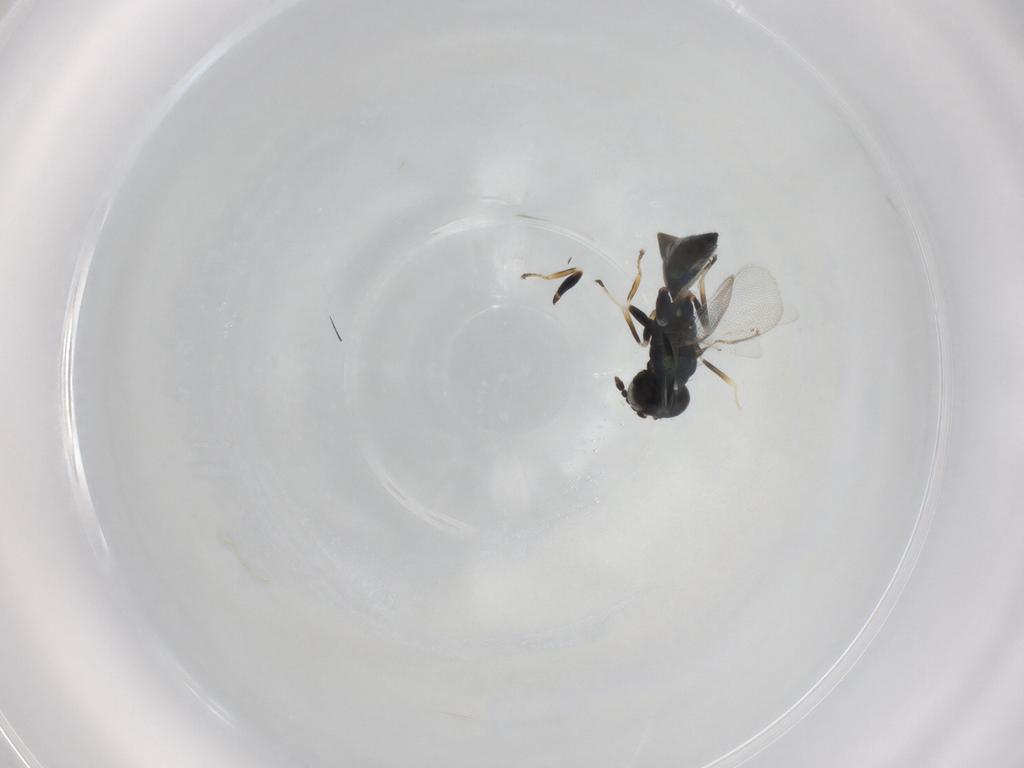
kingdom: Animalia
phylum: Arthropoda
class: Insecta
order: Hymenoptera
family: Eulophidae
